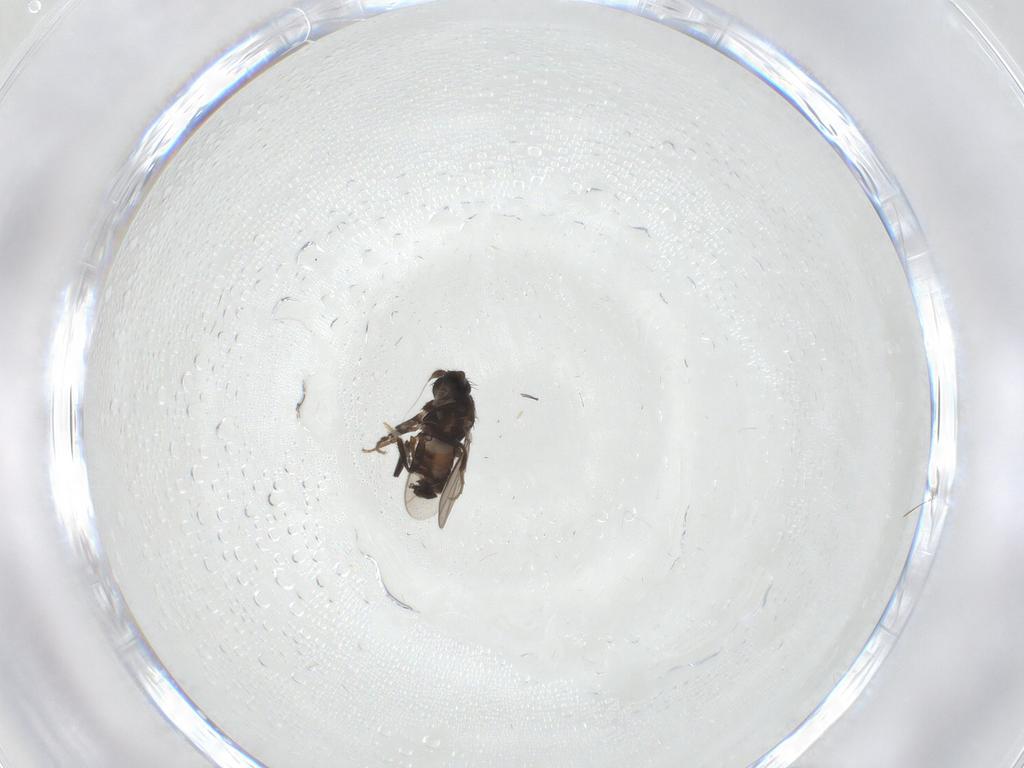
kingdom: Animalia
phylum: Arthropoda
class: Insecta
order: Diptera
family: Sphaeroceridae
